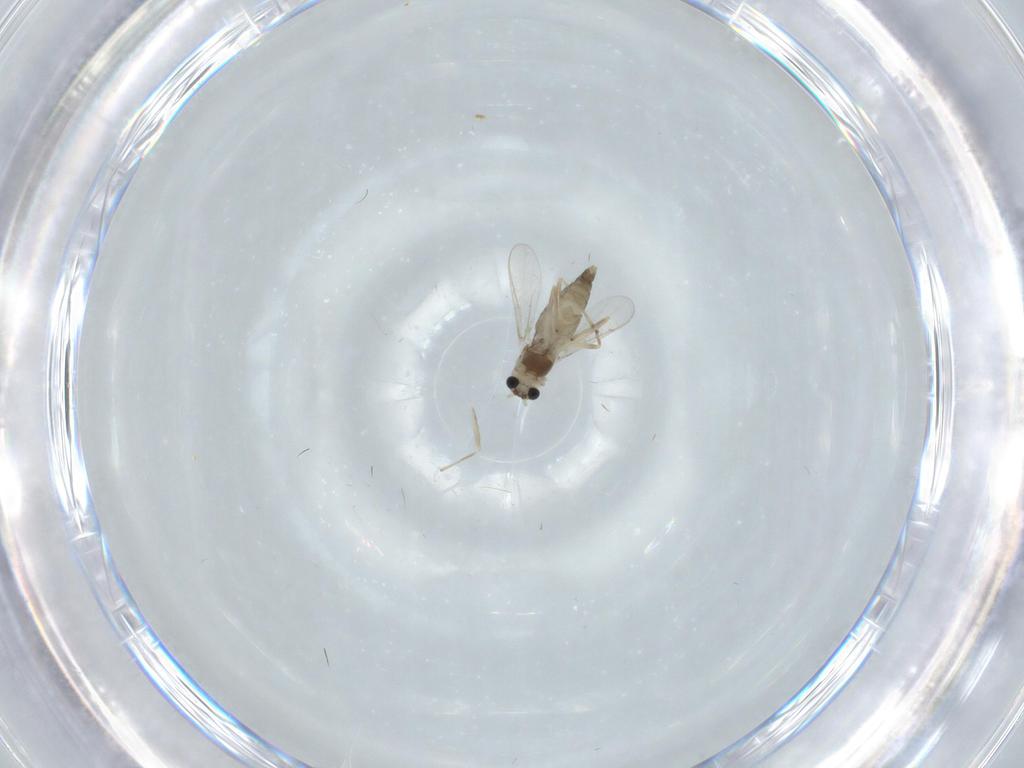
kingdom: Animalia
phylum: Arthropoda
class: Insecta
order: Diptera
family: Chironomidae
